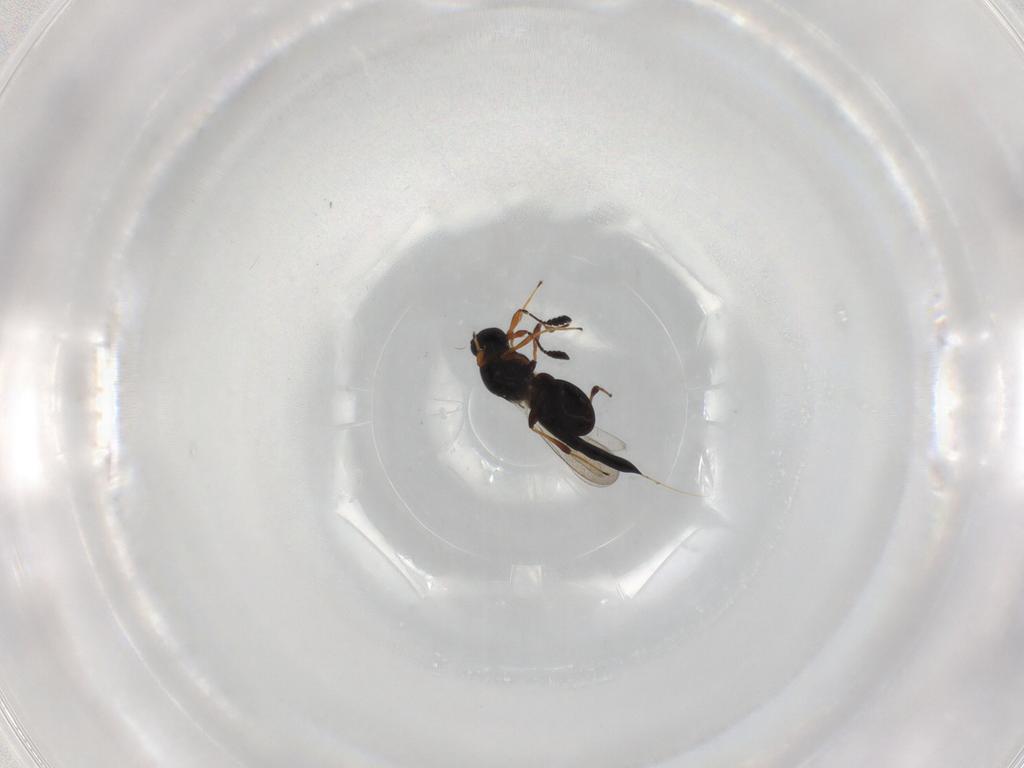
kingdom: Animalia
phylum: Arthropoda
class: Insecta
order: Hymenoptera
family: Platygastridae
